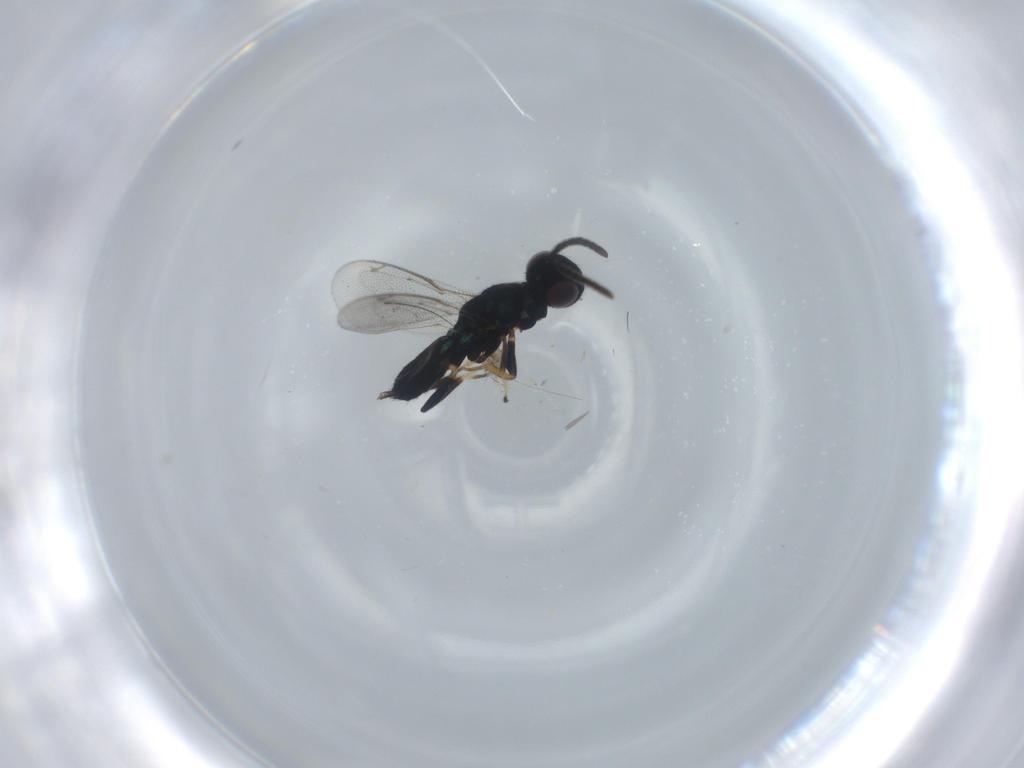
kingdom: Animalia
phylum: Arthropoda
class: Insecta
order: Hymenoptera
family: Eupelmidae
